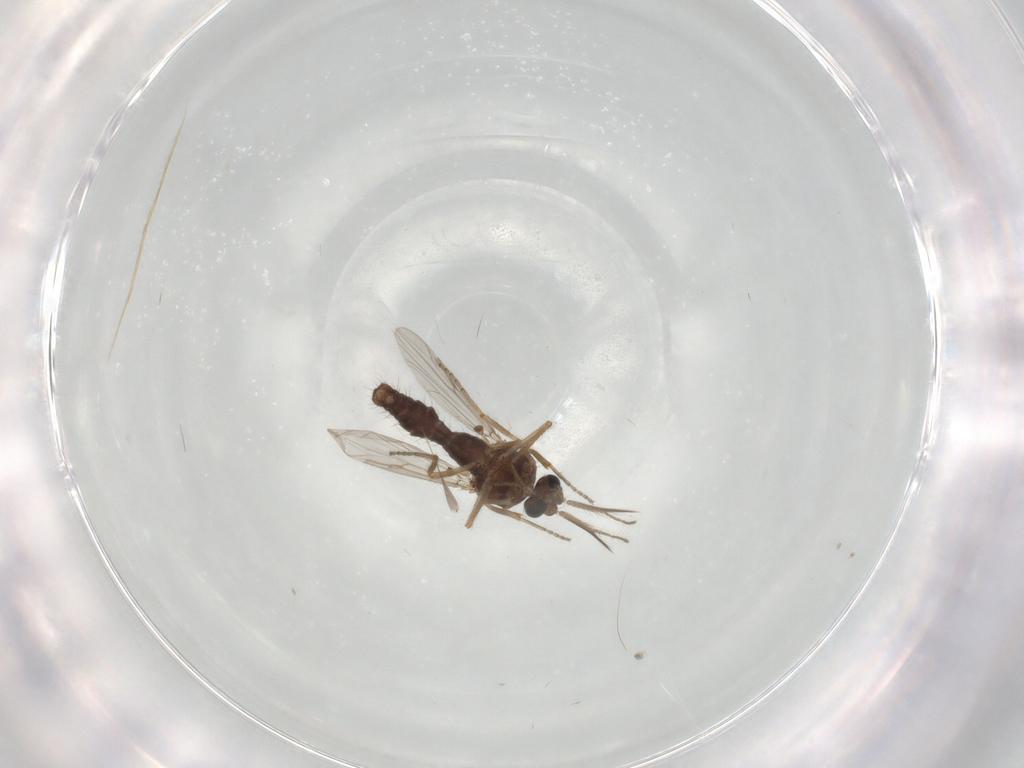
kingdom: Animalia
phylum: Arthropoda
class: Insecta
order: Diptera
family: Ceratopogonidae
